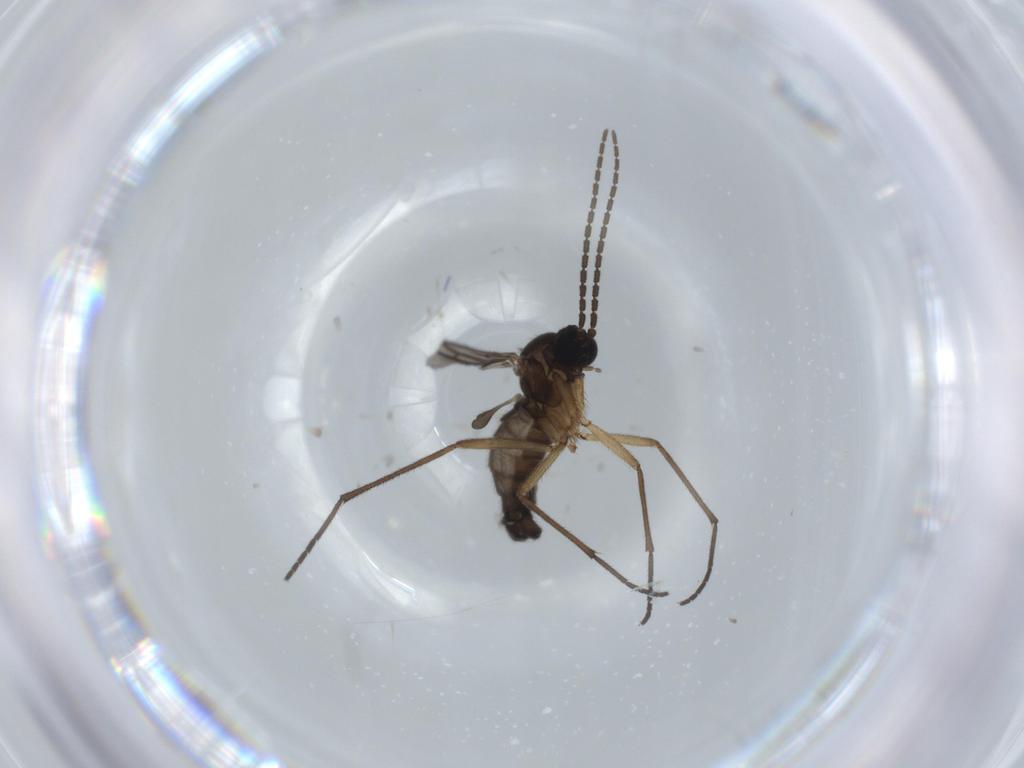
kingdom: Animalia
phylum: Arthropoda
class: Insecta
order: Diptera
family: Sciaridae
